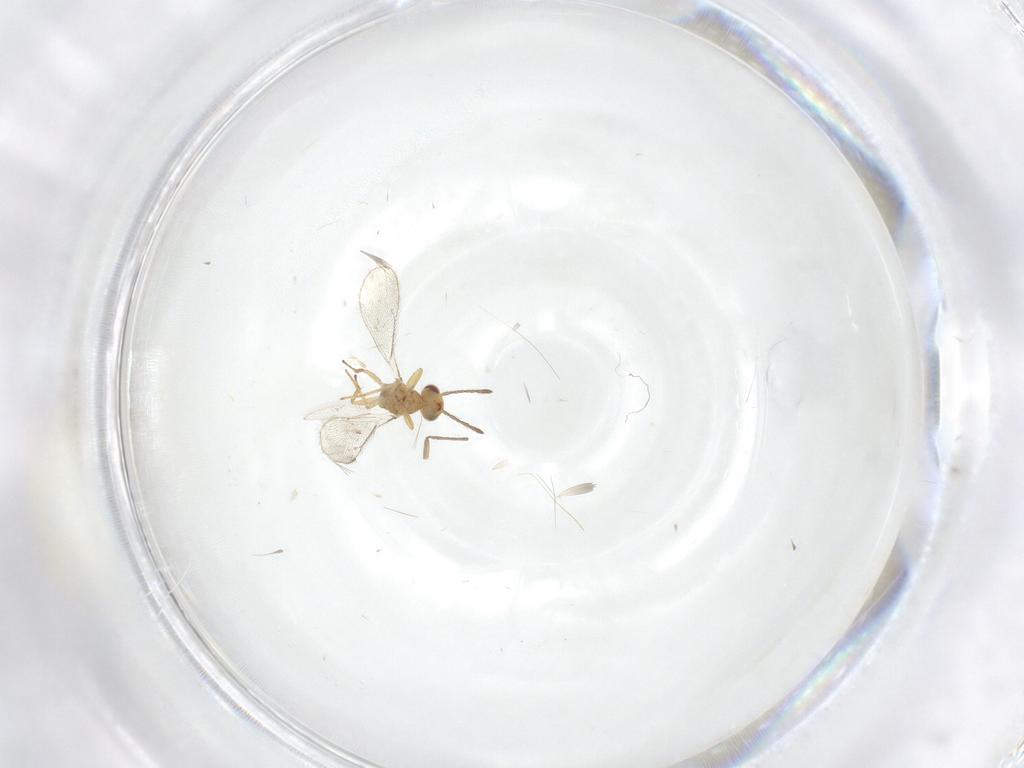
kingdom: Animalia
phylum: Arthropoda
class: Insecta
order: Hymenoptera
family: Eulophidae
